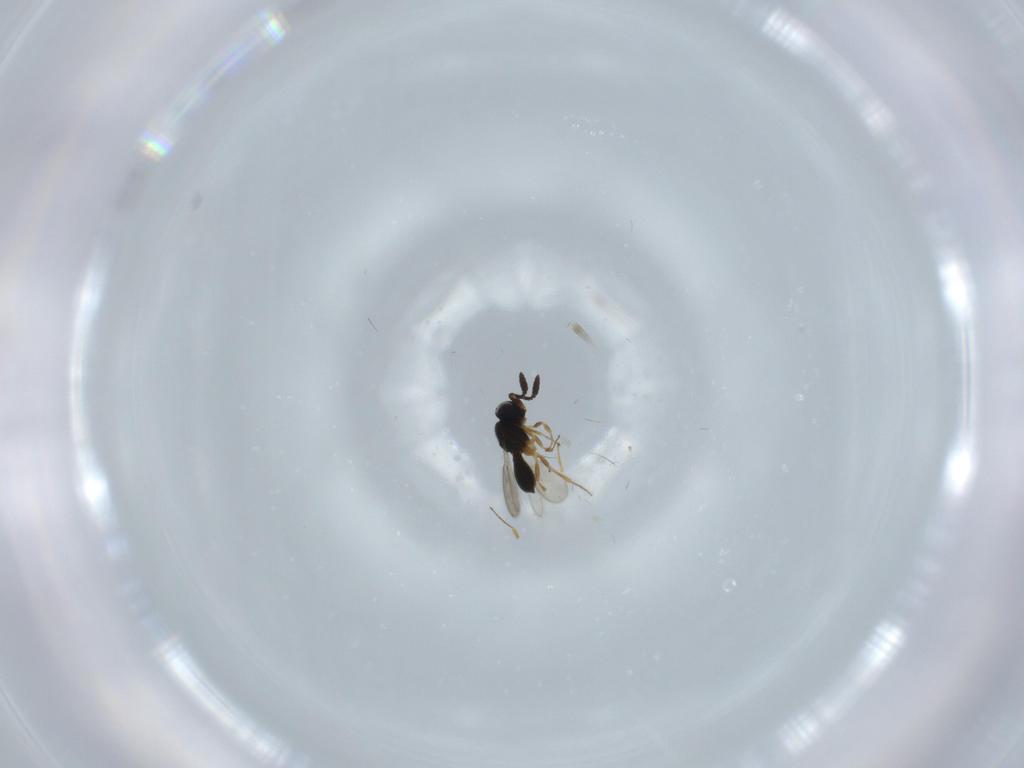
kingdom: Animalia
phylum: Arthropoda
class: Insecta
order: Hymenoptera
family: Scelionidae
